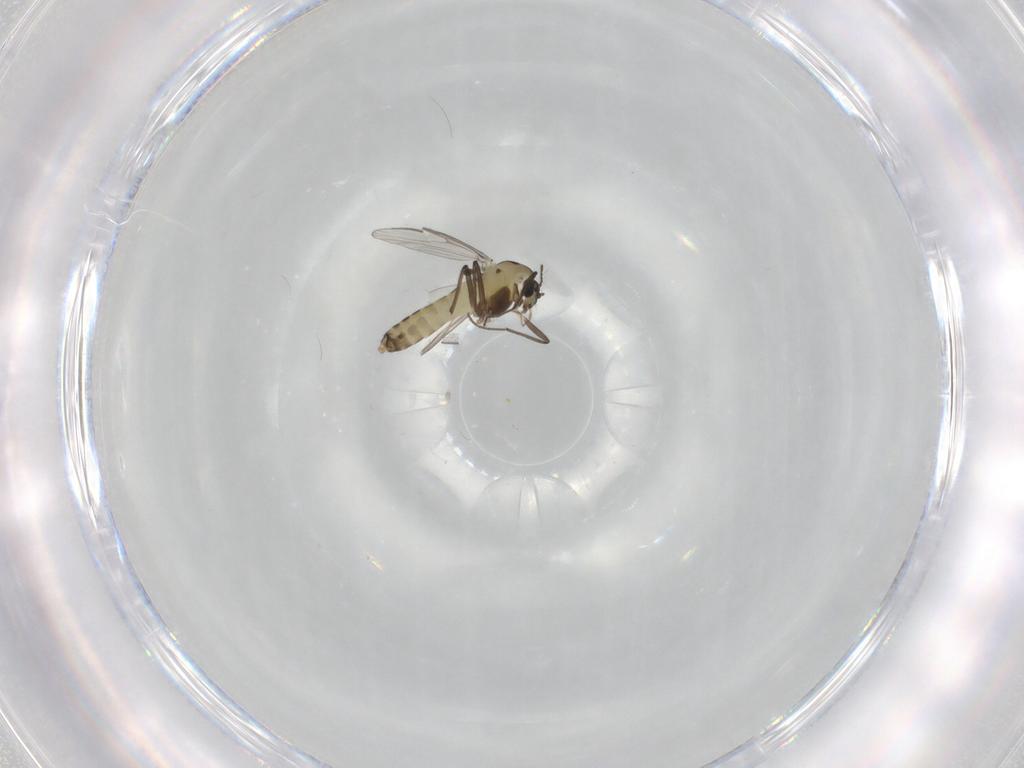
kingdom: Animalia
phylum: Arthropoda
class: Insecta
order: Diptera
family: Chironomidae
